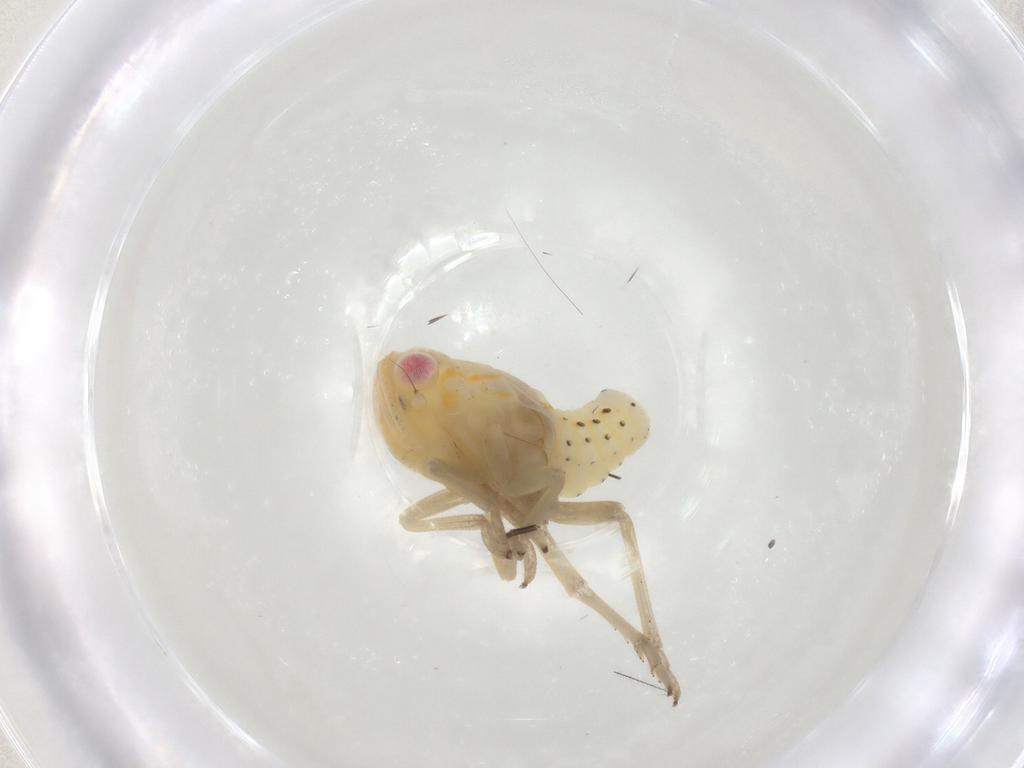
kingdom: Animalia
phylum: Arthropoda
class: Insecta
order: Hemiptera
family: Tropiduchidae
